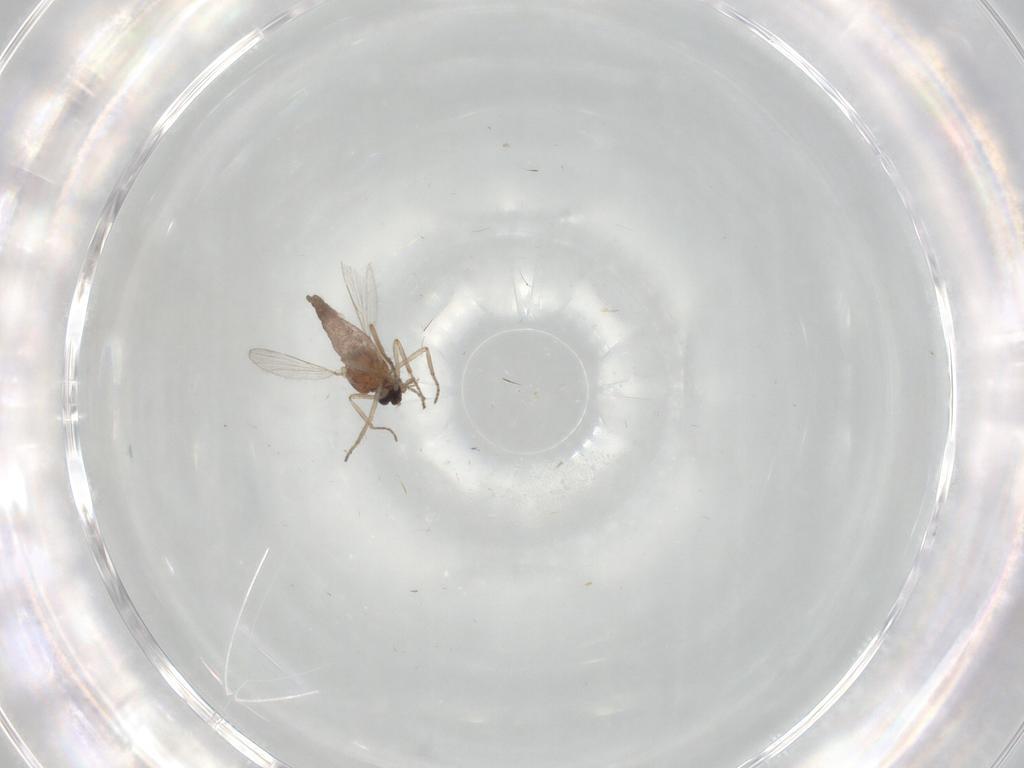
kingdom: Animalia
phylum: Arthropoda
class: Insecta
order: Diptera
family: Ceratopogonidae
